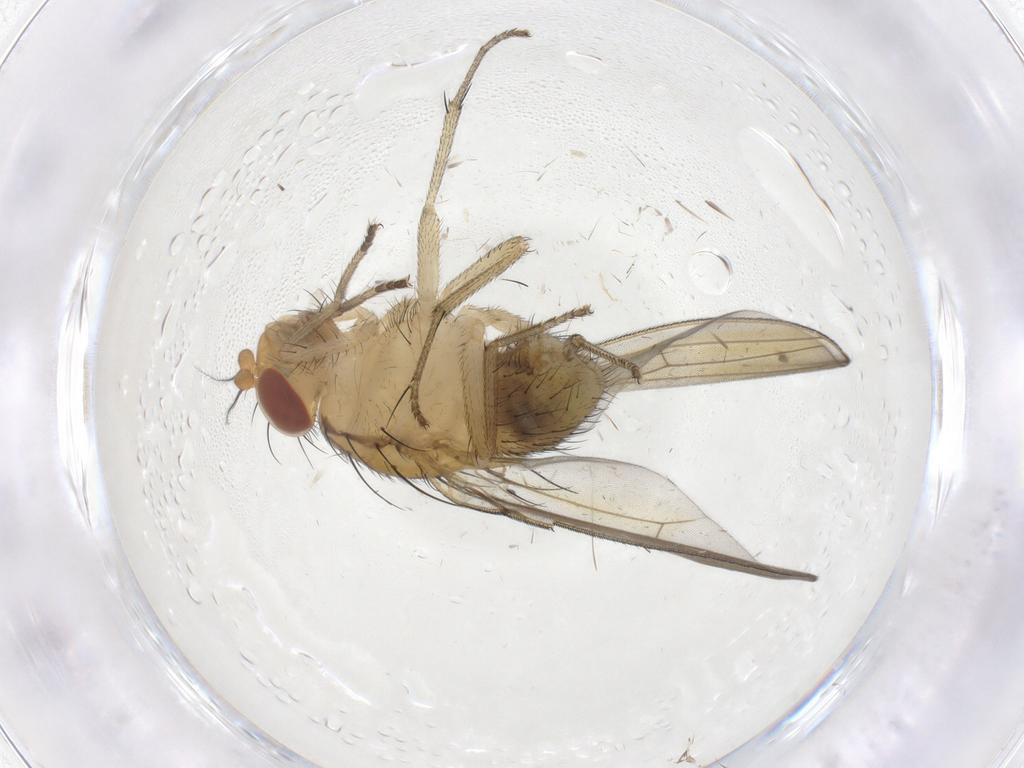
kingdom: Animalia
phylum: Arthropoda
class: Insecta
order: Diptera
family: Lauxaniidae
